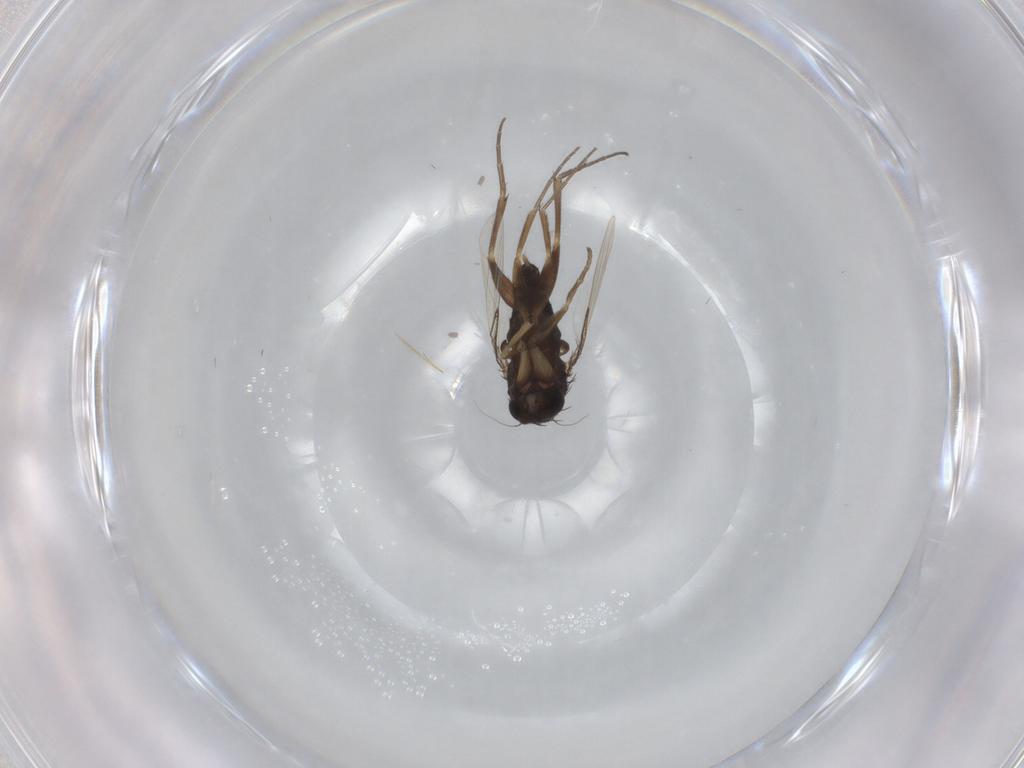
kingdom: Animalia
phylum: Arthropoda
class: Insecta
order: Diptera
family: Phoridae
